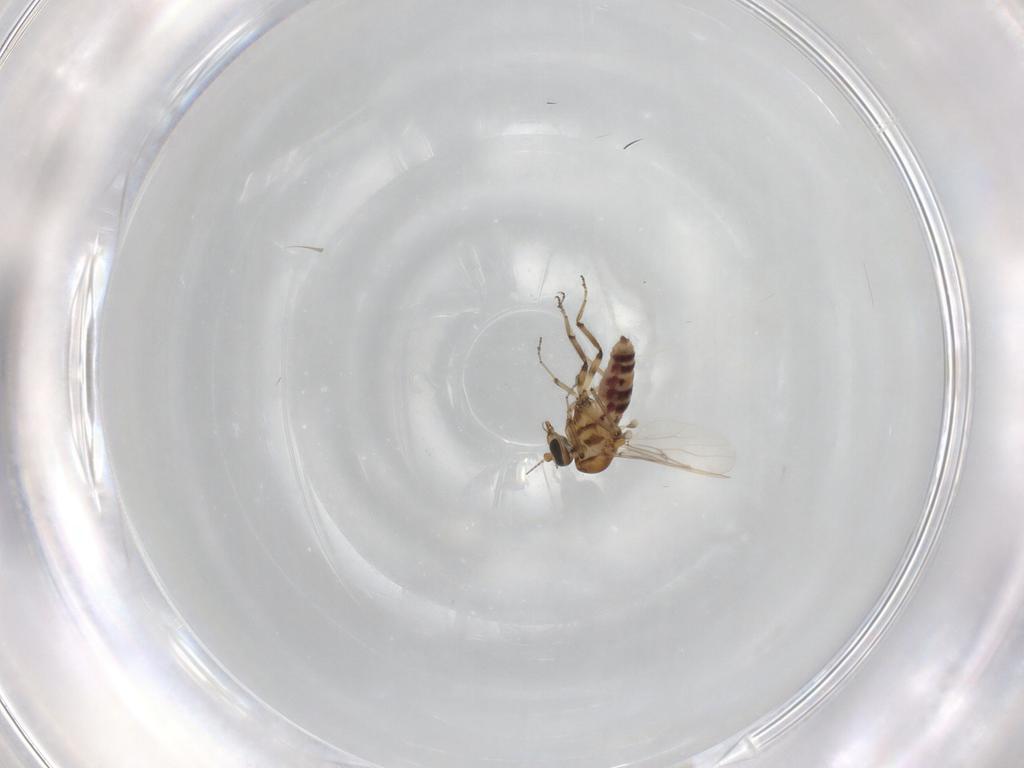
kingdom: Animalia
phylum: Arthropoda
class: Insecta
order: Diptera
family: Ceratopogonidae
